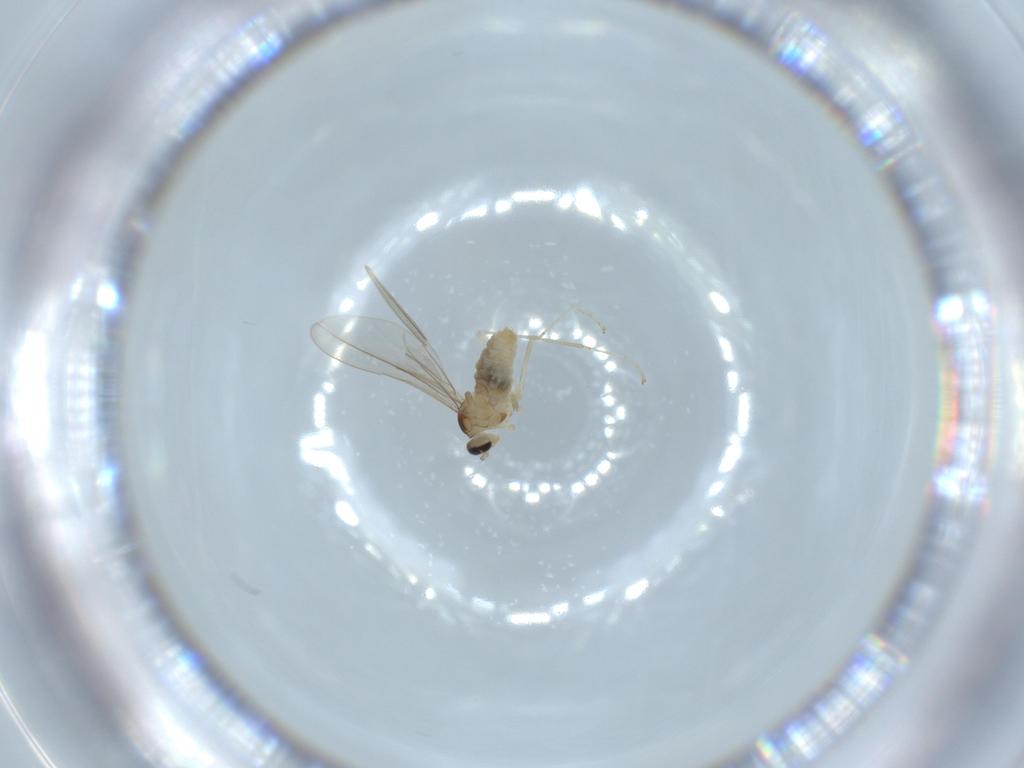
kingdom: Animalia
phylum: Arthropoda
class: Insecta
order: Diptera
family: Cecidomyiidae
